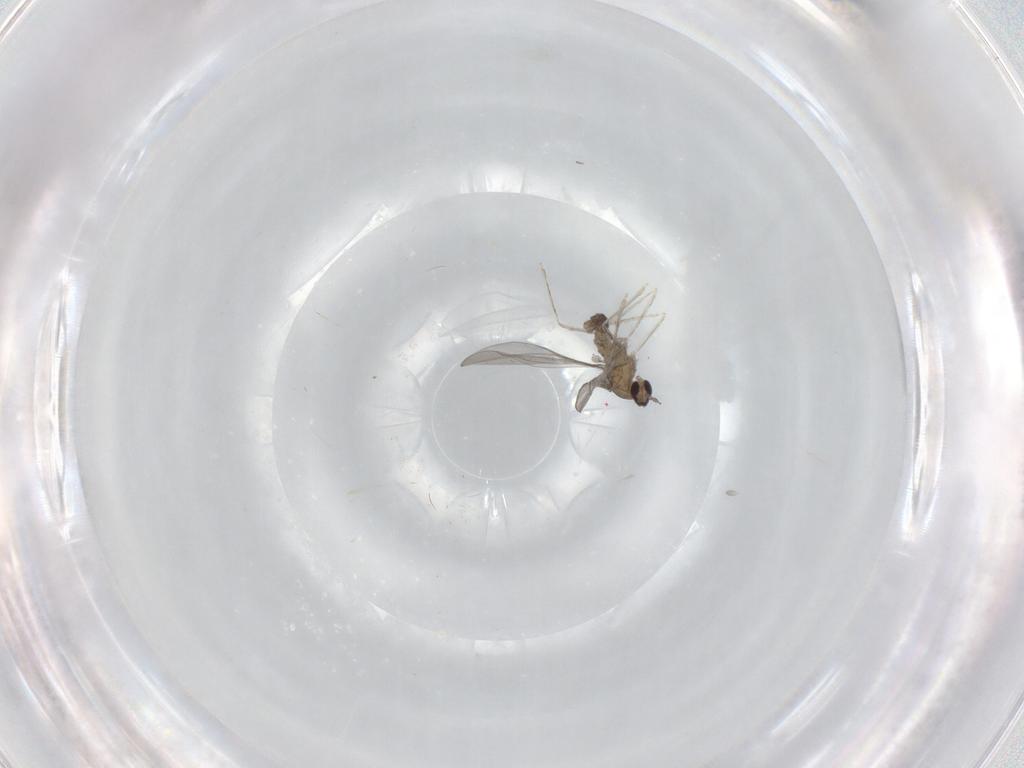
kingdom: Animalia
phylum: Arthropoda
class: Insecta
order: Diptera
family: Cecidomyiidae
